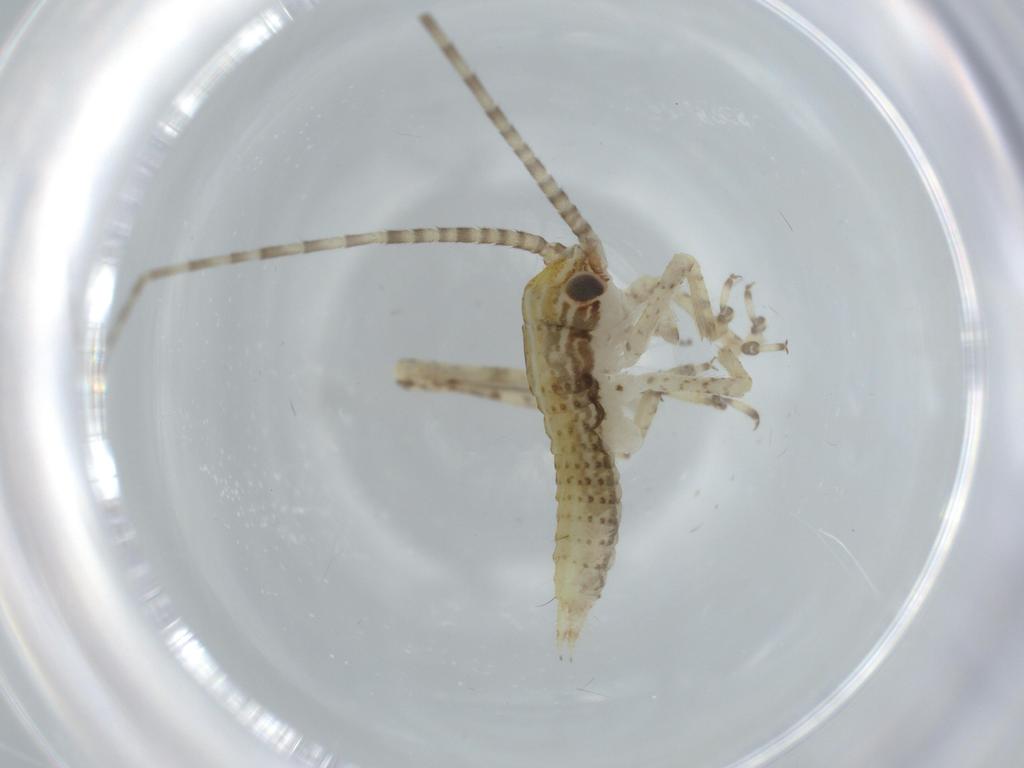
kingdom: Animalia
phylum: Arthropoda
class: Insecta
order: Orthoptera
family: Gryllidae
